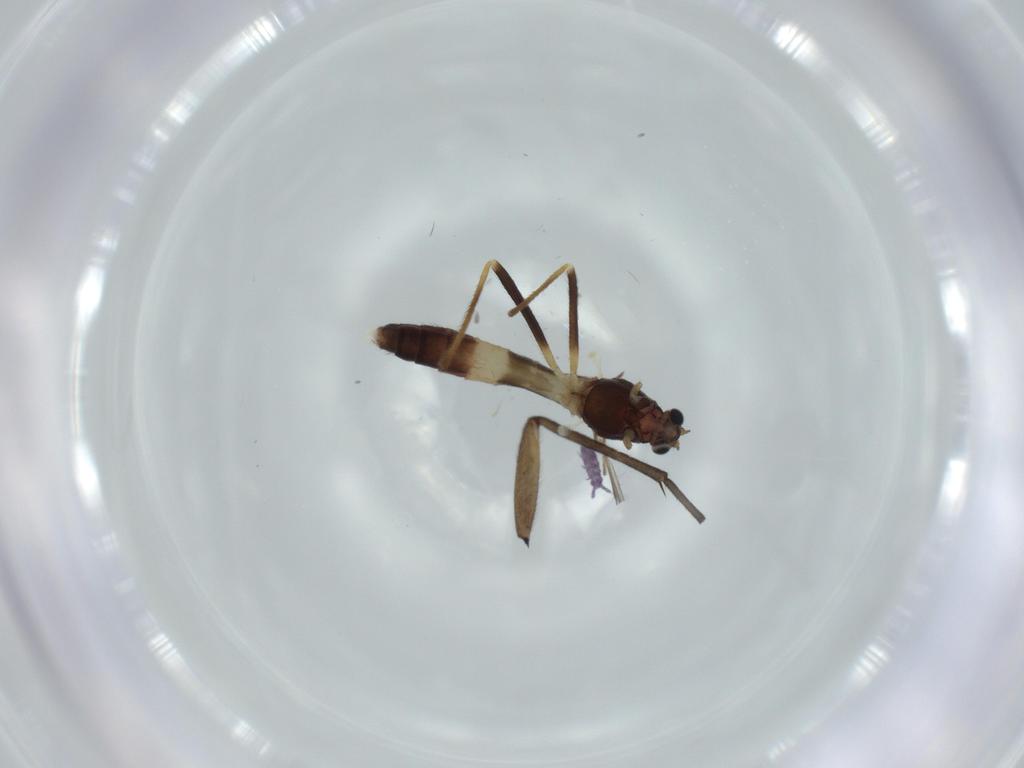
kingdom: Animalia
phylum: Arthropoda
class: Insecta
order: Diptera
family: Sciaridae
